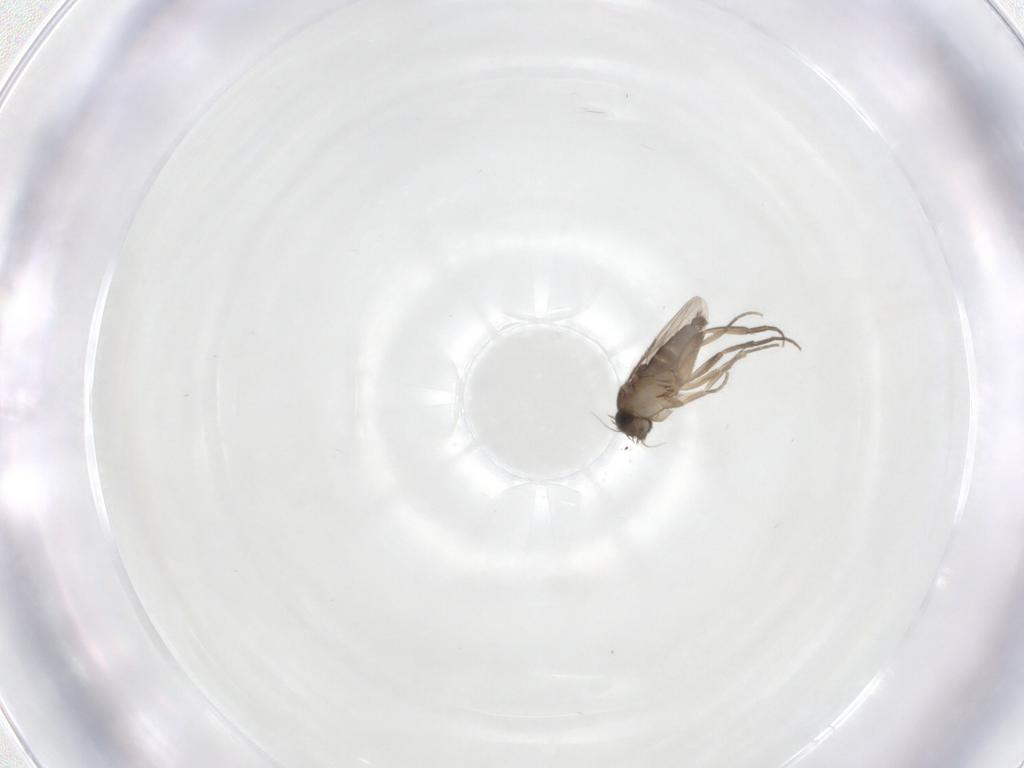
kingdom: Animalia
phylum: Arthropoda
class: Insecta
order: Diptera
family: Phoridae
